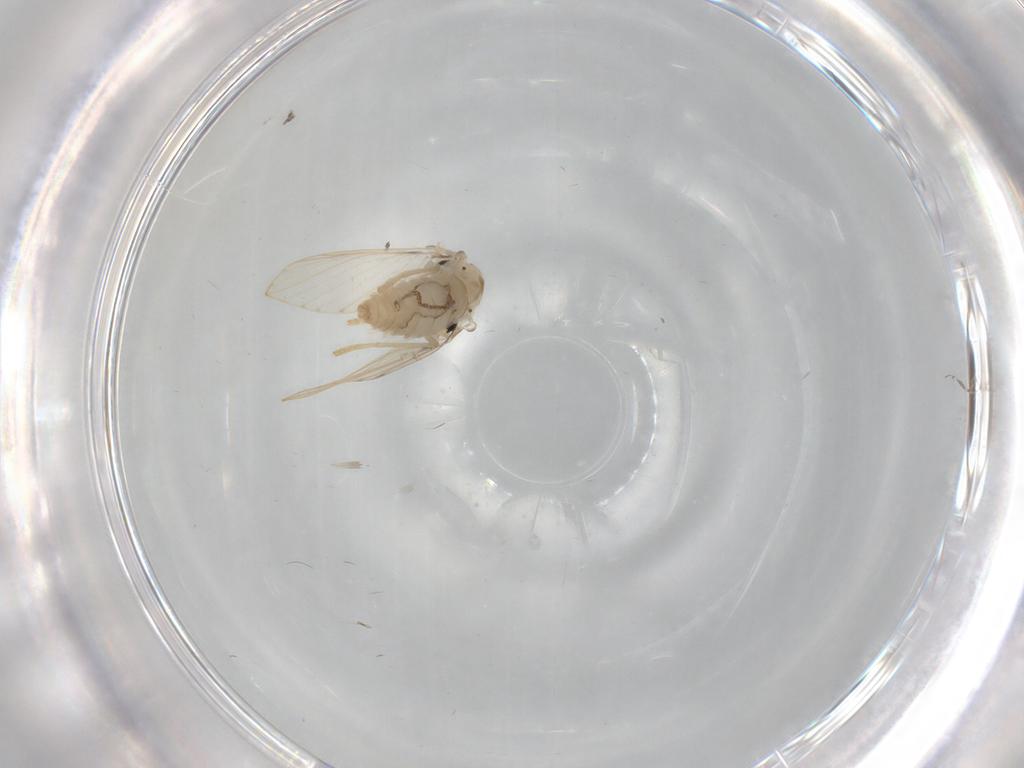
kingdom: Animalia
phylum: Arthropoda
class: Insecta
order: Diptera
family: Psychodidae
